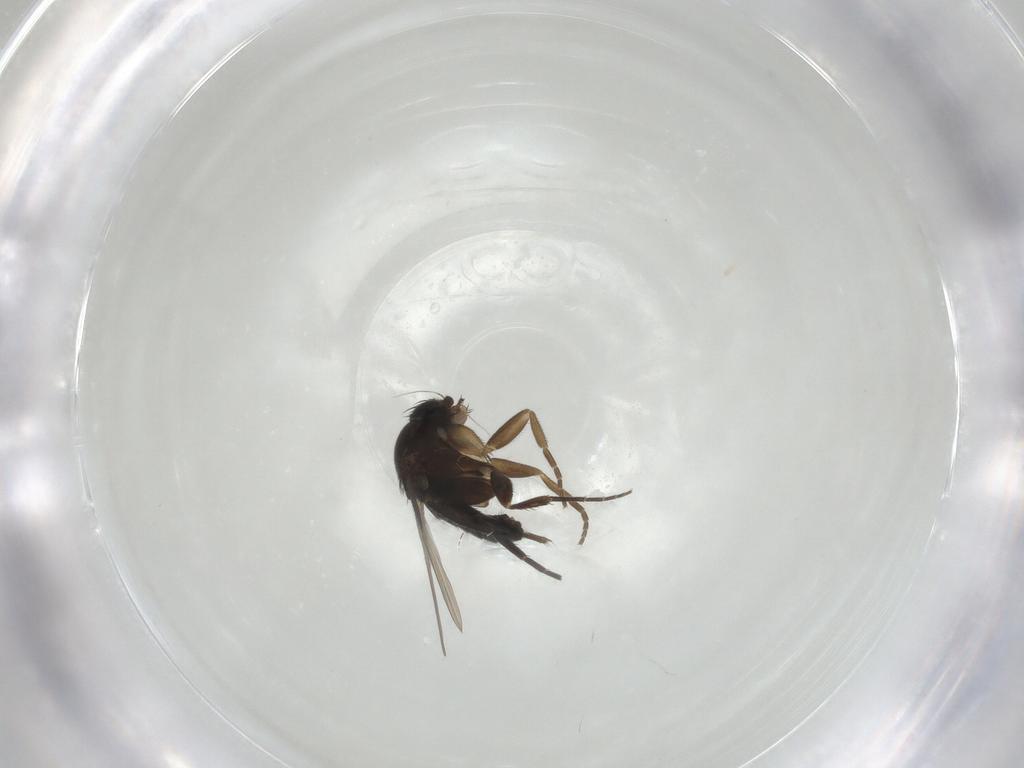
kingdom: Animalia
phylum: Arthropoda
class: Insecta
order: Diptera
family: Phoridae
